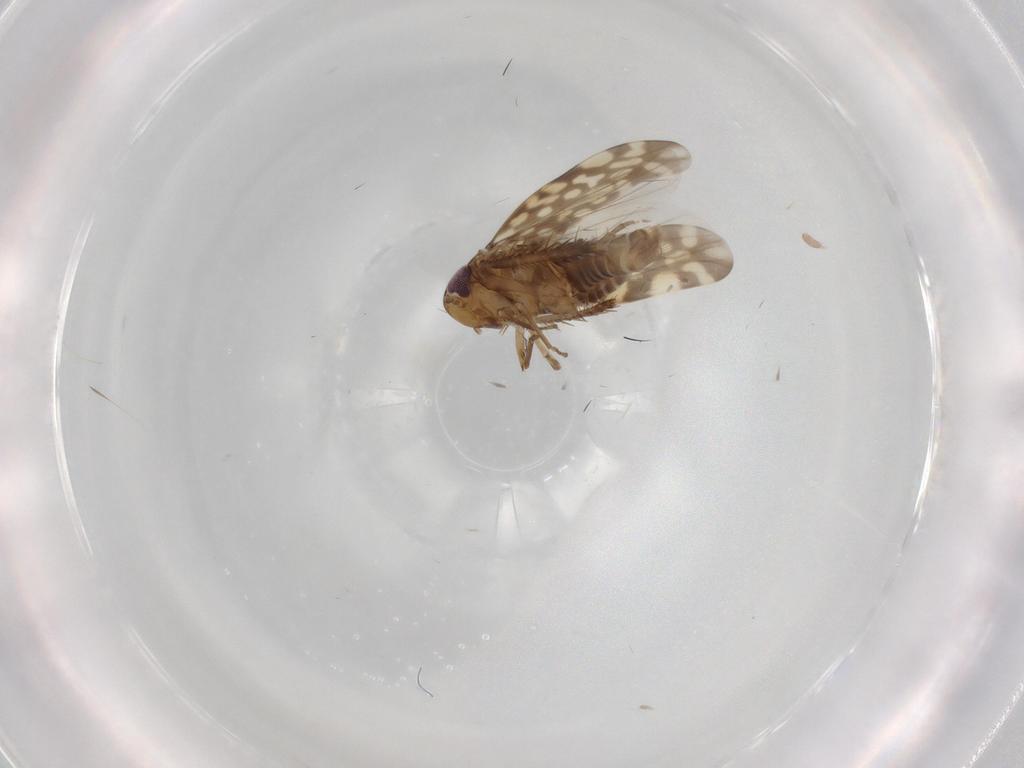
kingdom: Animalia
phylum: Arthropoda
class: Insecta
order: Hemiptera
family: Cicadellidae
